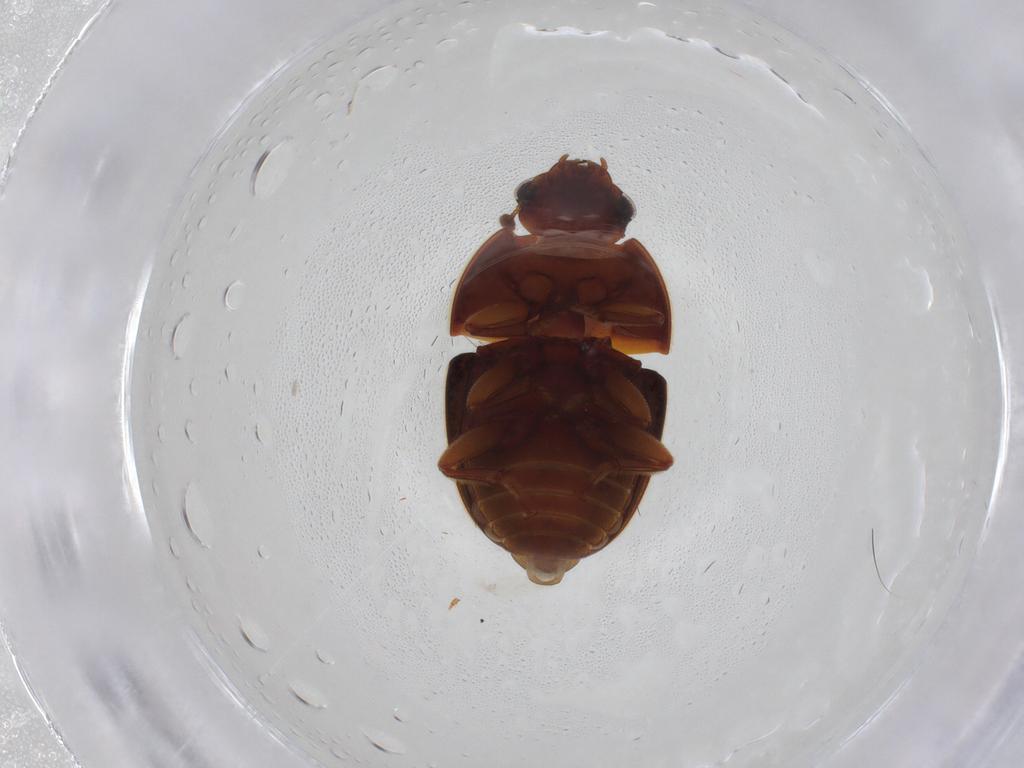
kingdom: Animalia
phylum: Arthropoda
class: Insecta
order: Coleoptera
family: Nitidulidae
